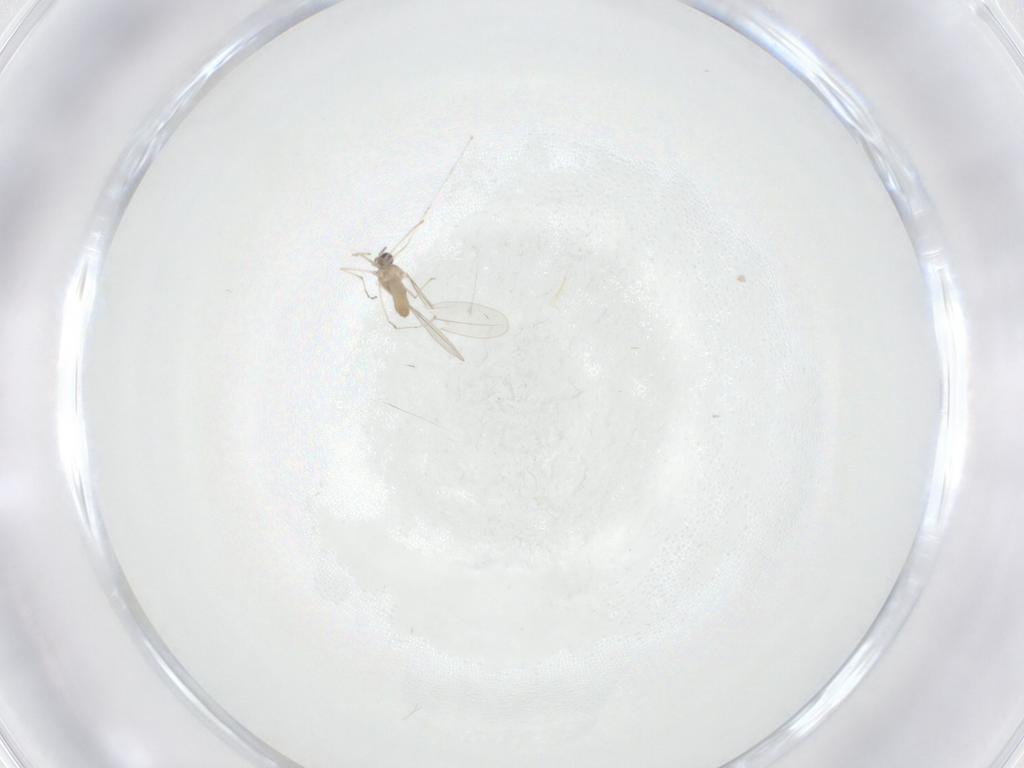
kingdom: Animalia
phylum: Arthropoda
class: Insecta
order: Diptera
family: Cecidomyiidae
